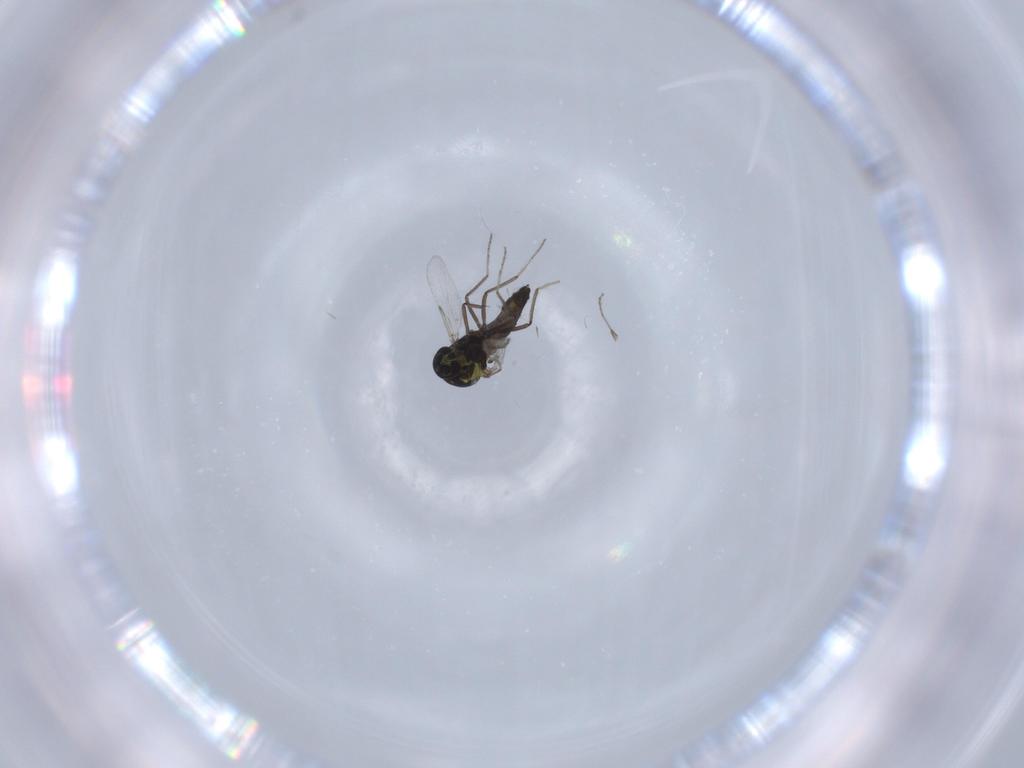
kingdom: Animalia
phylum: Arthropoda
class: Insecta
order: Diptera
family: Ceratopogonidae
